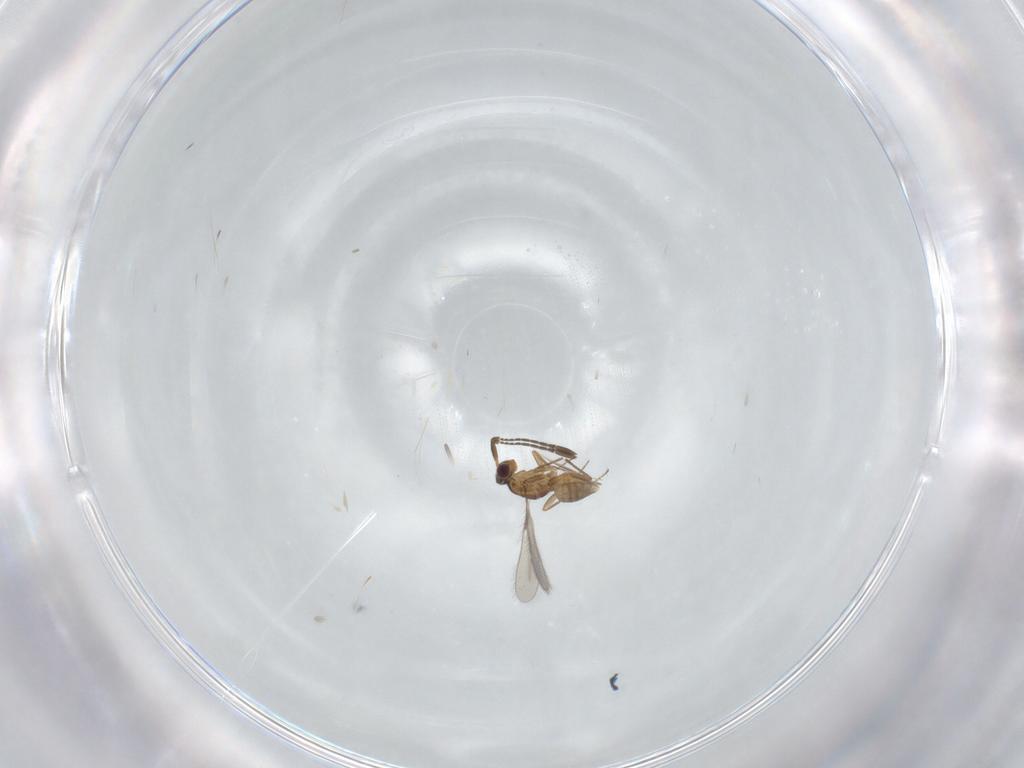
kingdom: Animalia
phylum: Arthropoda
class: Insecta
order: Hymenoptera
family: Mymaridae
